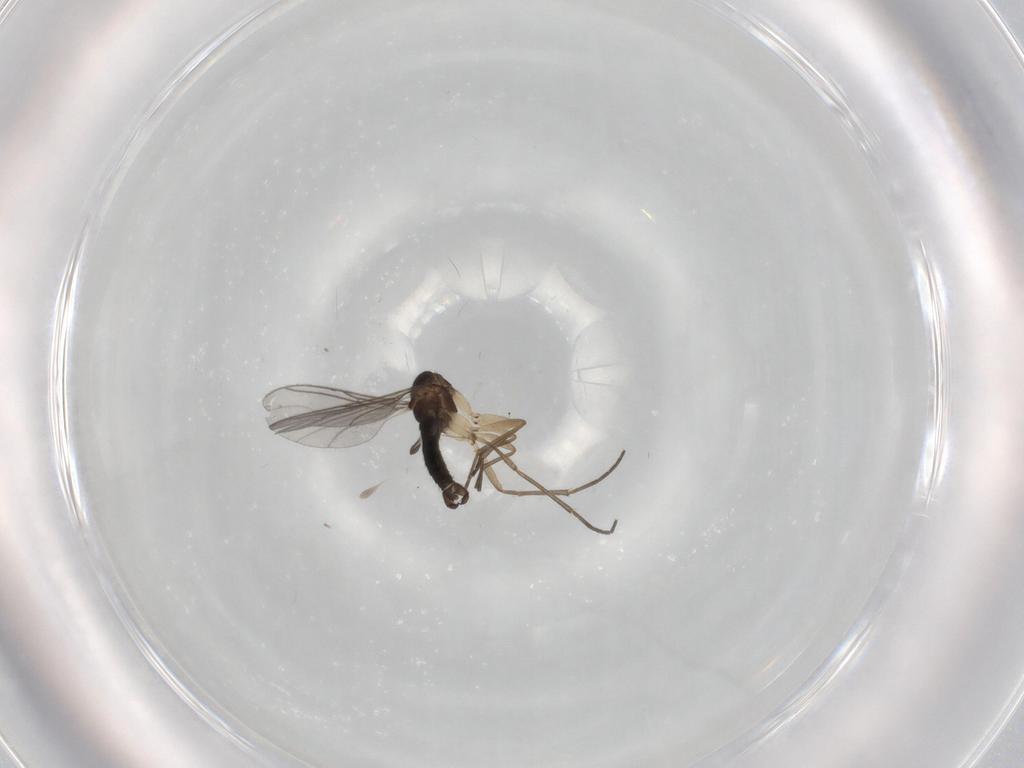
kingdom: Animalia
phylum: Arthropoda
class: Insecta
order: Diptera
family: Sciaridae
